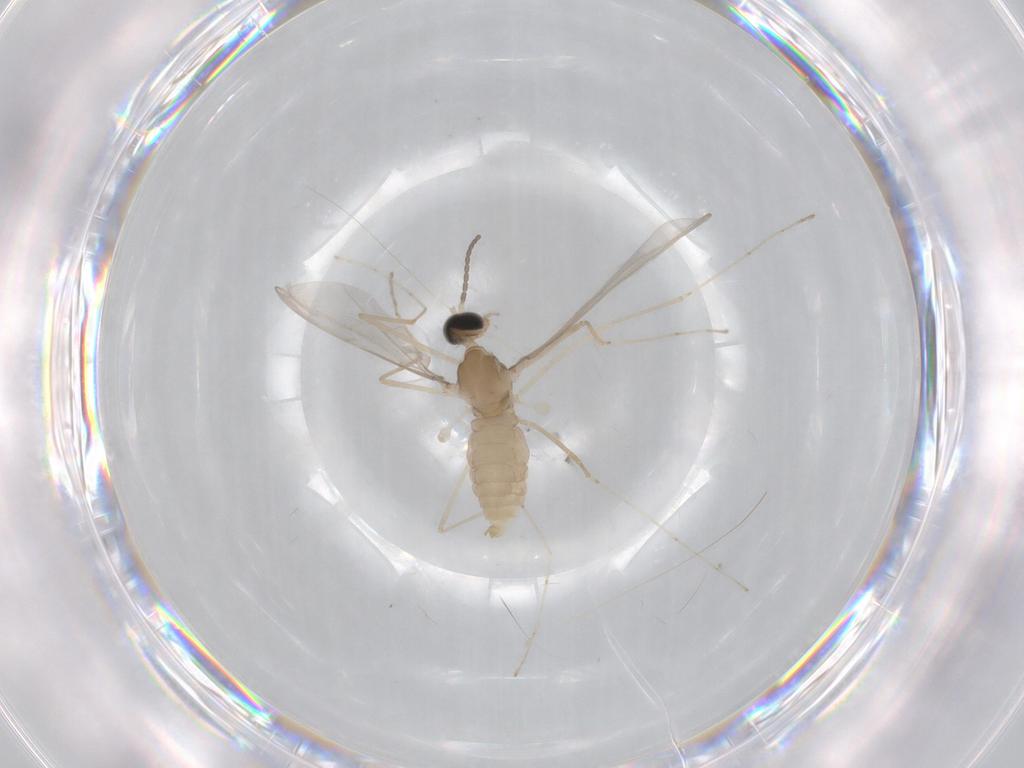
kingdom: Animalia
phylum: Arthropoda
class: Insecta
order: Diptera
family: Cecidomyiidae
